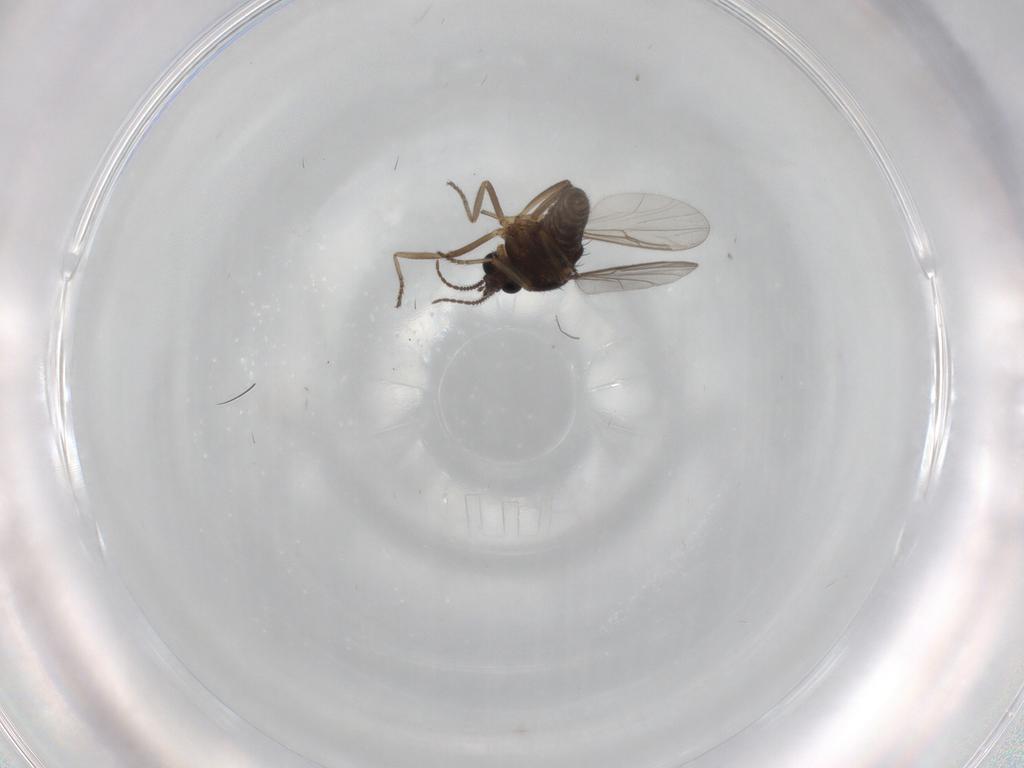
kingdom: Animalia
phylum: Arthropoda
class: Insecta
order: Diptera
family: Ceratopogonidae
